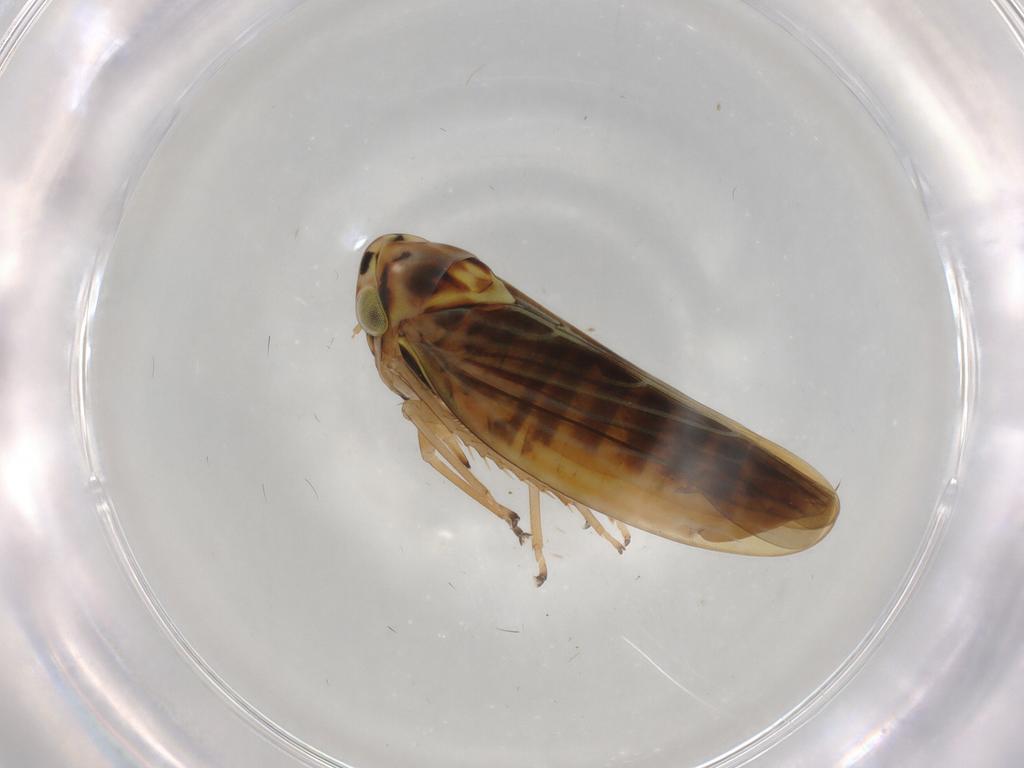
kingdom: Animalia
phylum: Arthropoda
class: Insecta
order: Hemiptera
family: Cicadellidae
